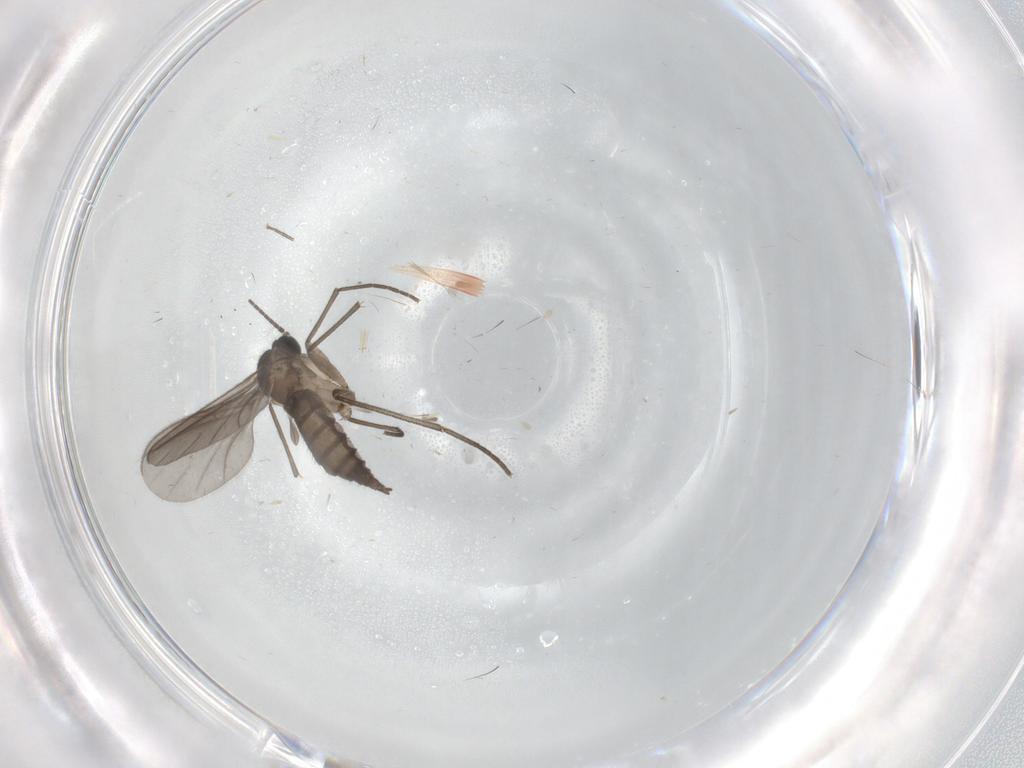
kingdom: Animalia
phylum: Arthropoda
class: Insecta
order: Diptera
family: Sciaridae
